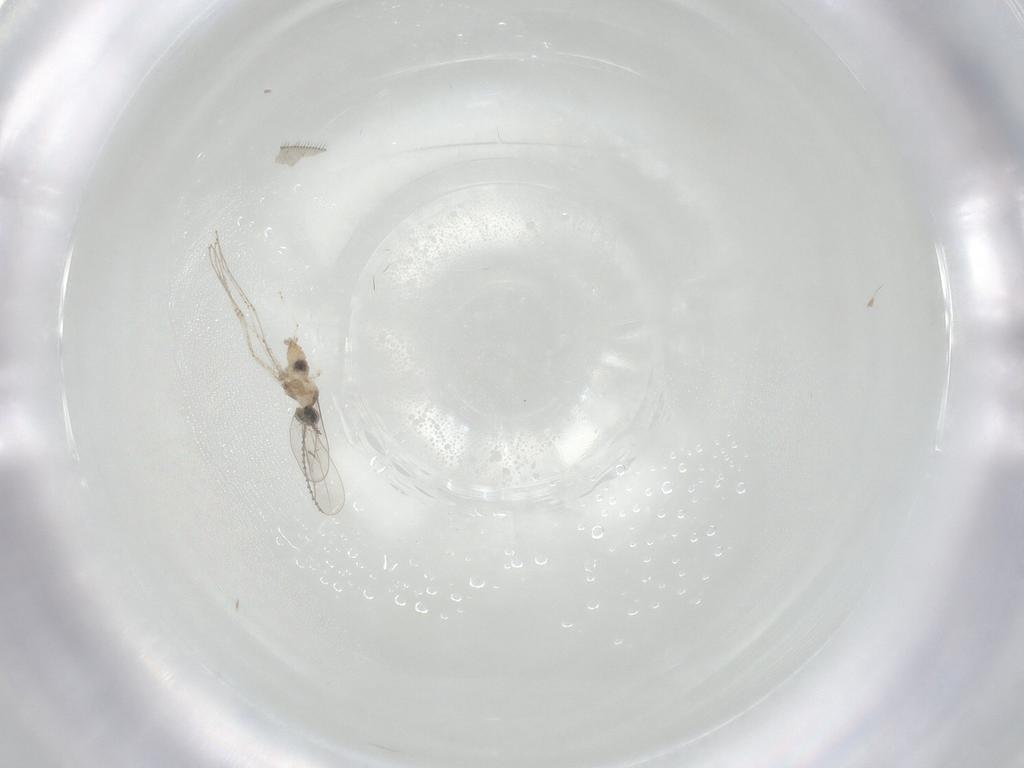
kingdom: Animalia
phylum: Arthropoda
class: Insecta
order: Diptera
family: Cecidomyiidae
